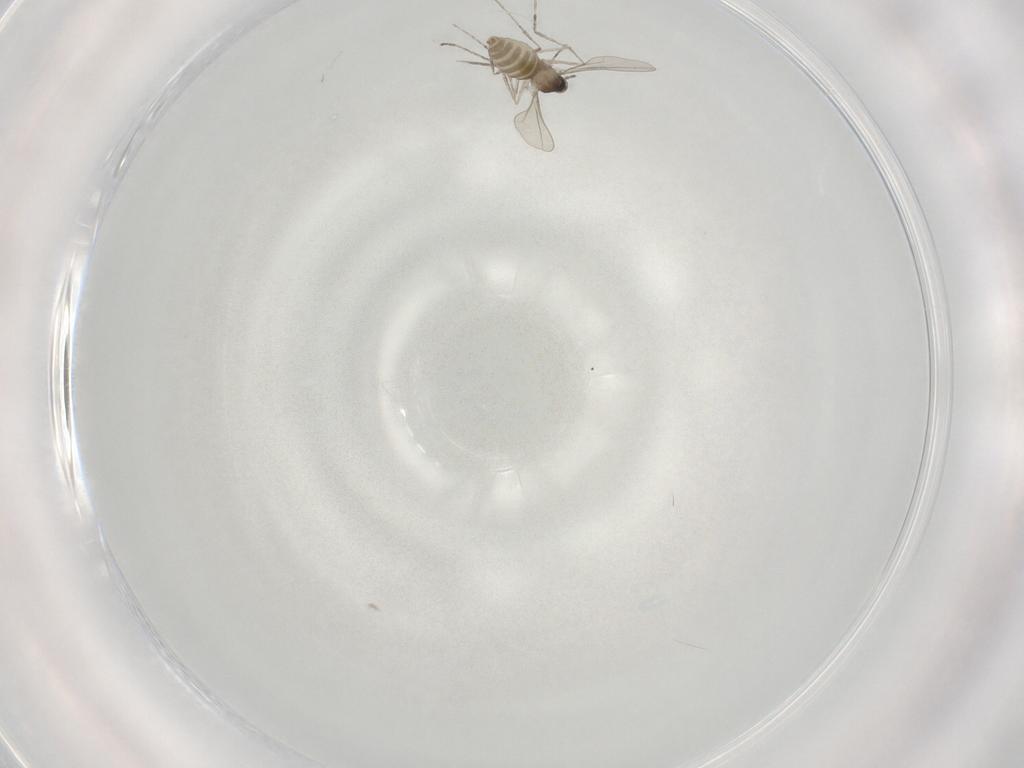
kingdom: Animalia
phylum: Arthropoda
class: Insecta
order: Diptera
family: Cecidomyiidae
